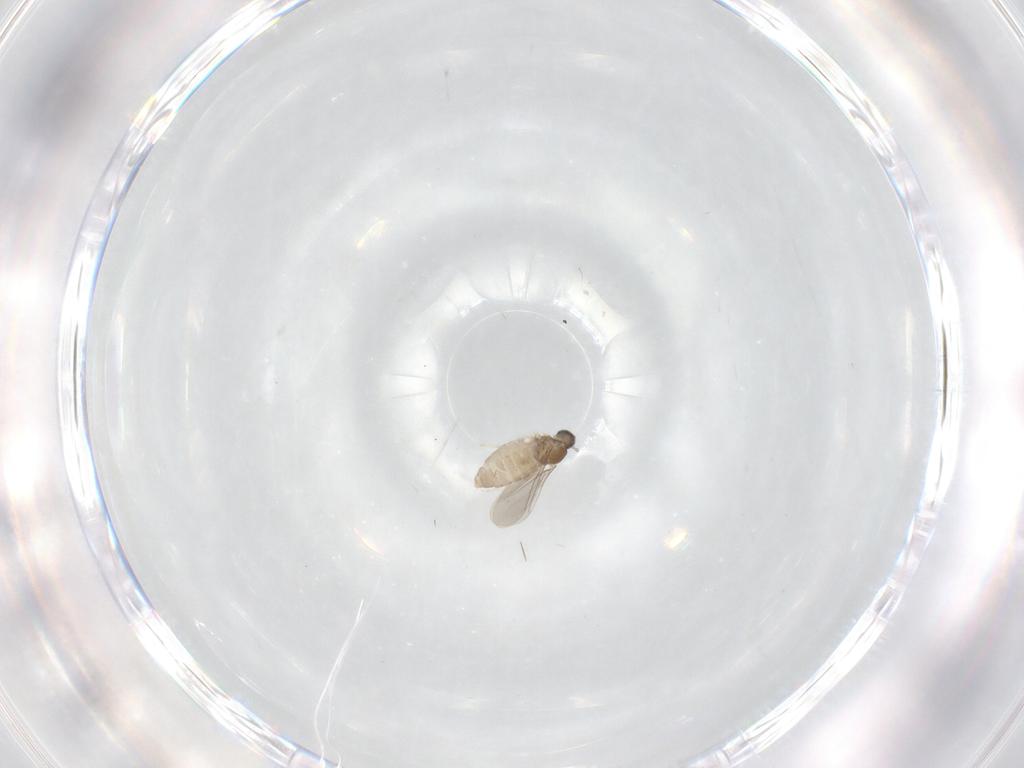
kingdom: Animalia
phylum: Arthropoda
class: Insecta
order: Diptera
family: Cecidomyiidae
